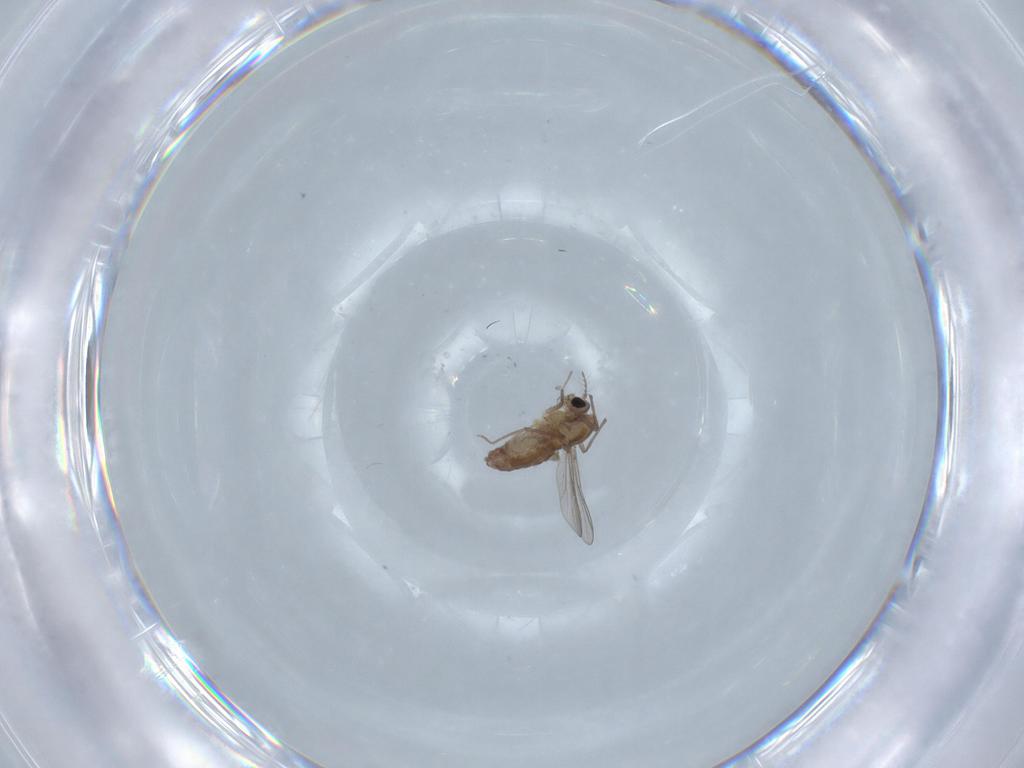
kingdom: Animalia
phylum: Arthropoda
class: Insecta
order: Diptera
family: Chironomidae
